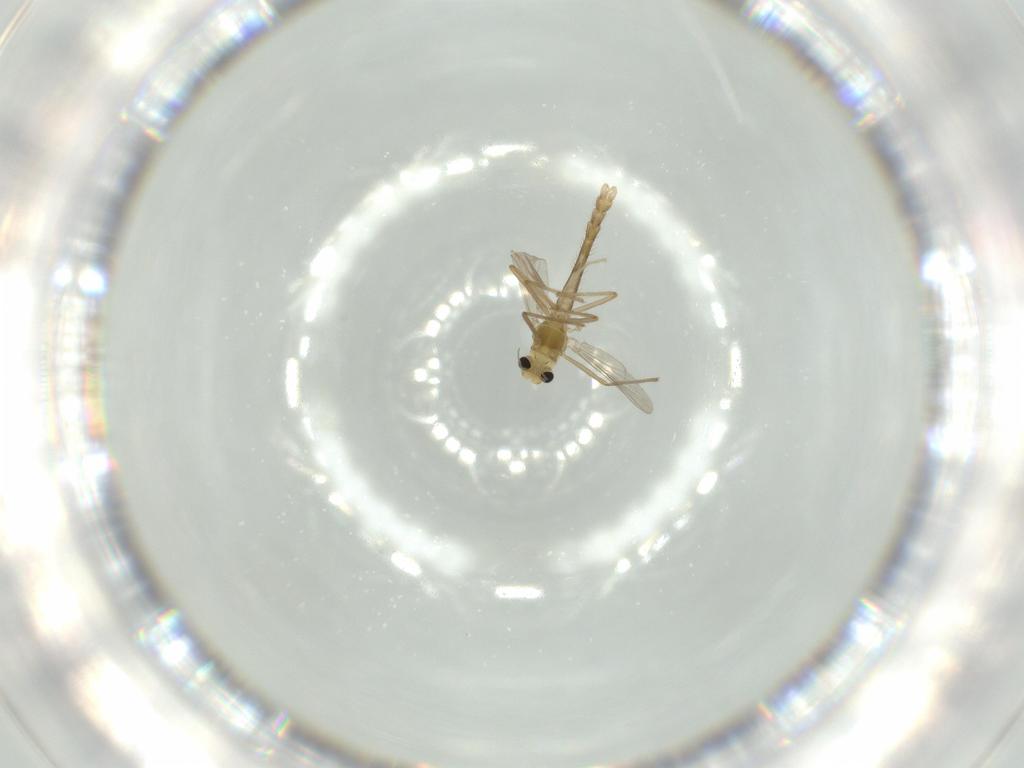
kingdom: Animalia
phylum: Arthropoda
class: Insecta
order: Diptera
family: Chironomidae
